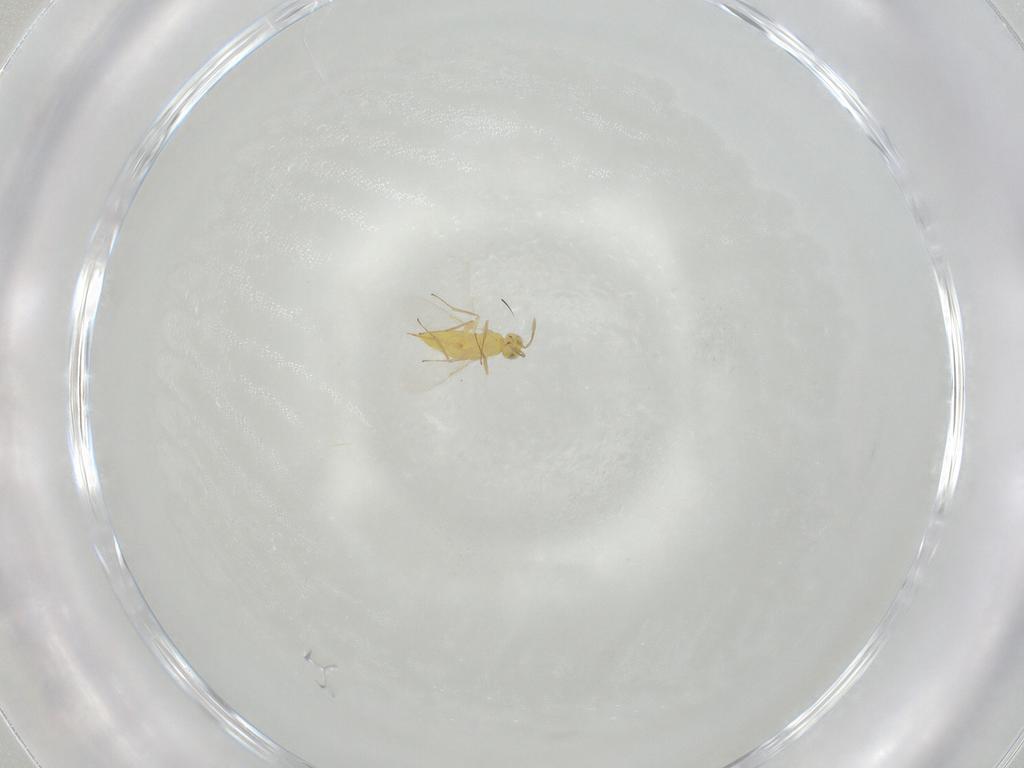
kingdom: Animalia
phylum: Arthropoda
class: Insecta
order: Hymenoptera
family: Aphelinidae
